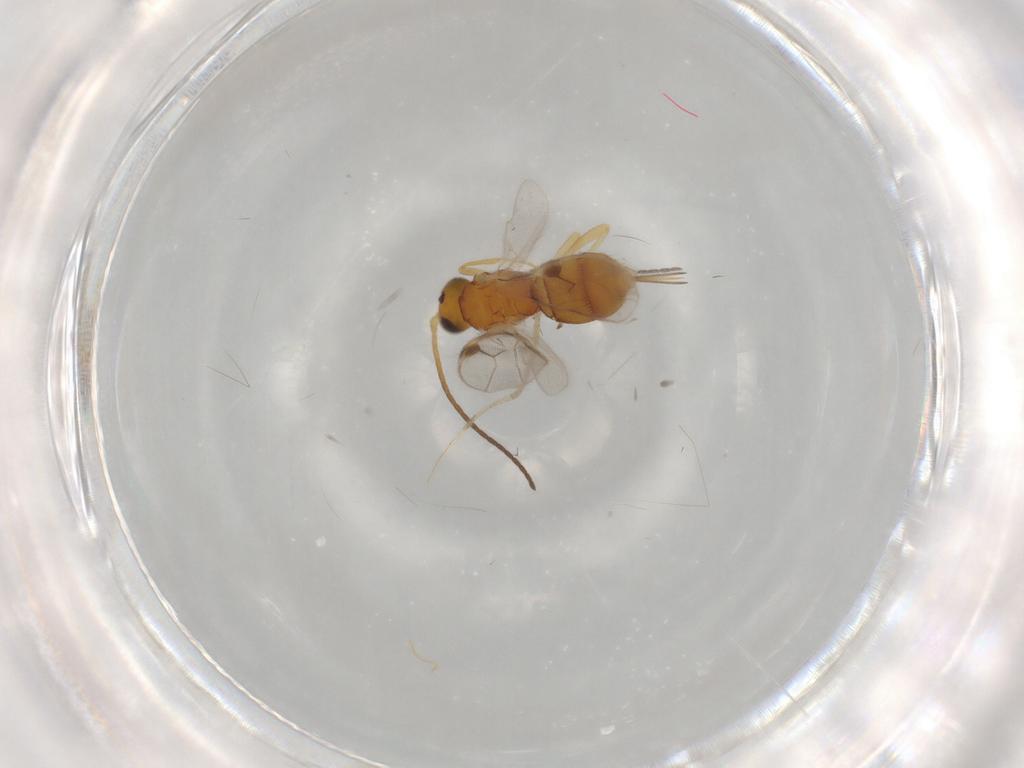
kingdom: Animalia
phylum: Arthropoda
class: Insecta
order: Hymenoptera
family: Braconidae
